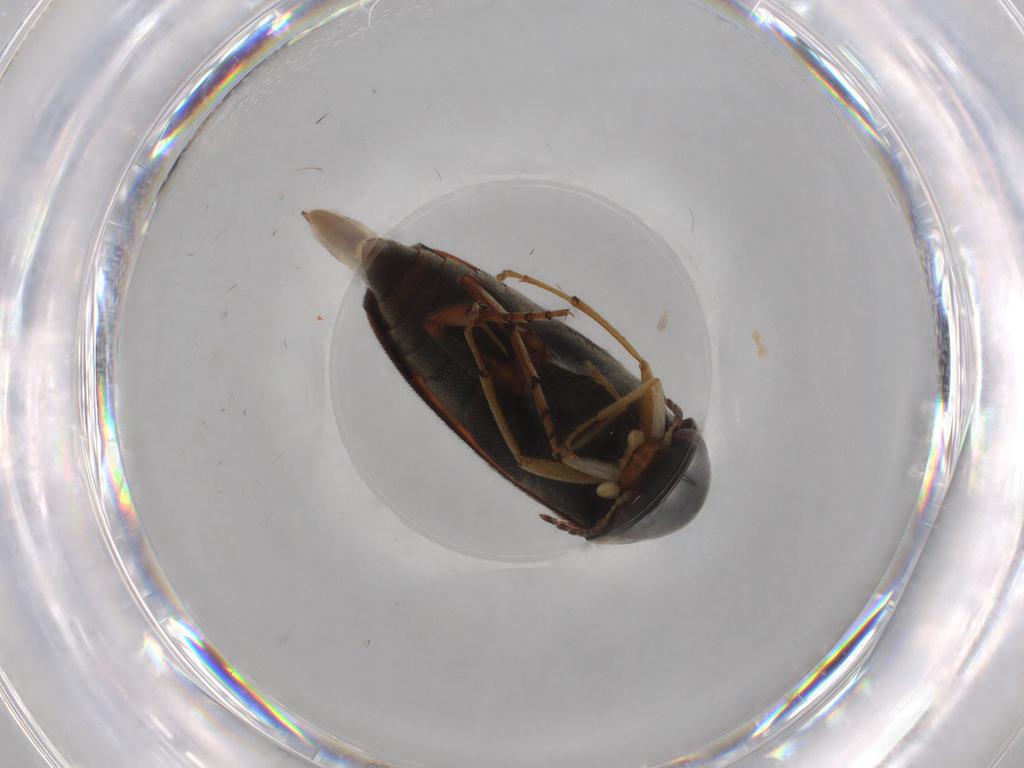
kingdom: Animalia
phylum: Arthropoda
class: Insecta
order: Coleoptera
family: Mordellidae
